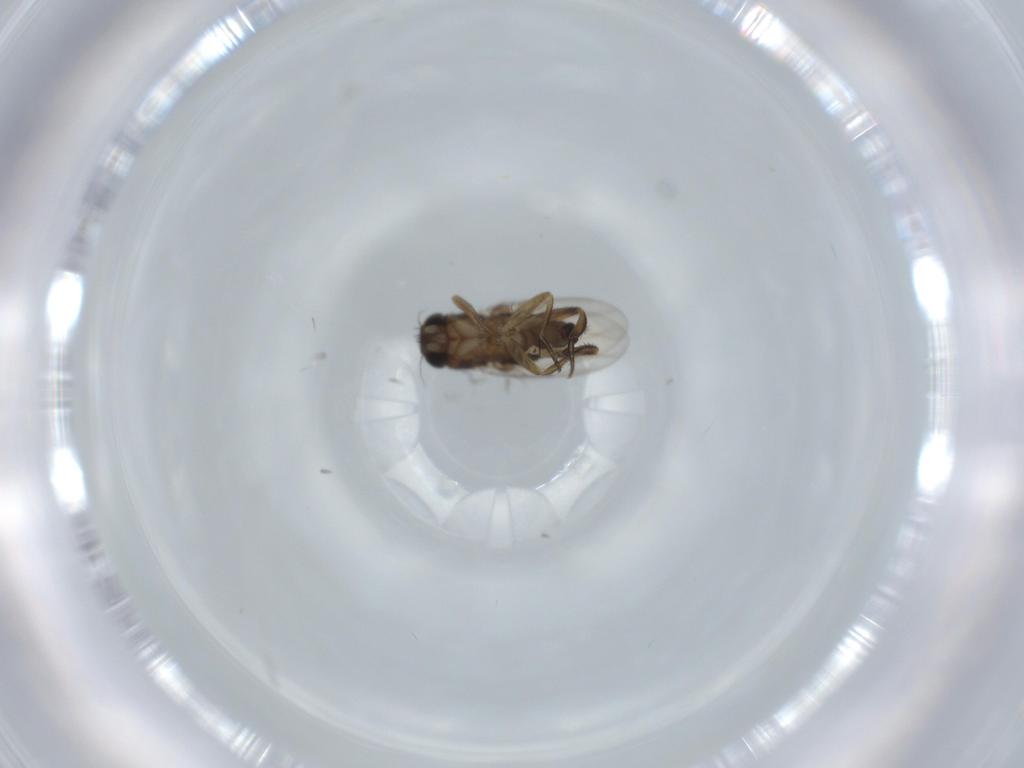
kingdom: Animalia
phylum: Arthropoda
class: Insecta
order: Diptera
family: Phoridae
